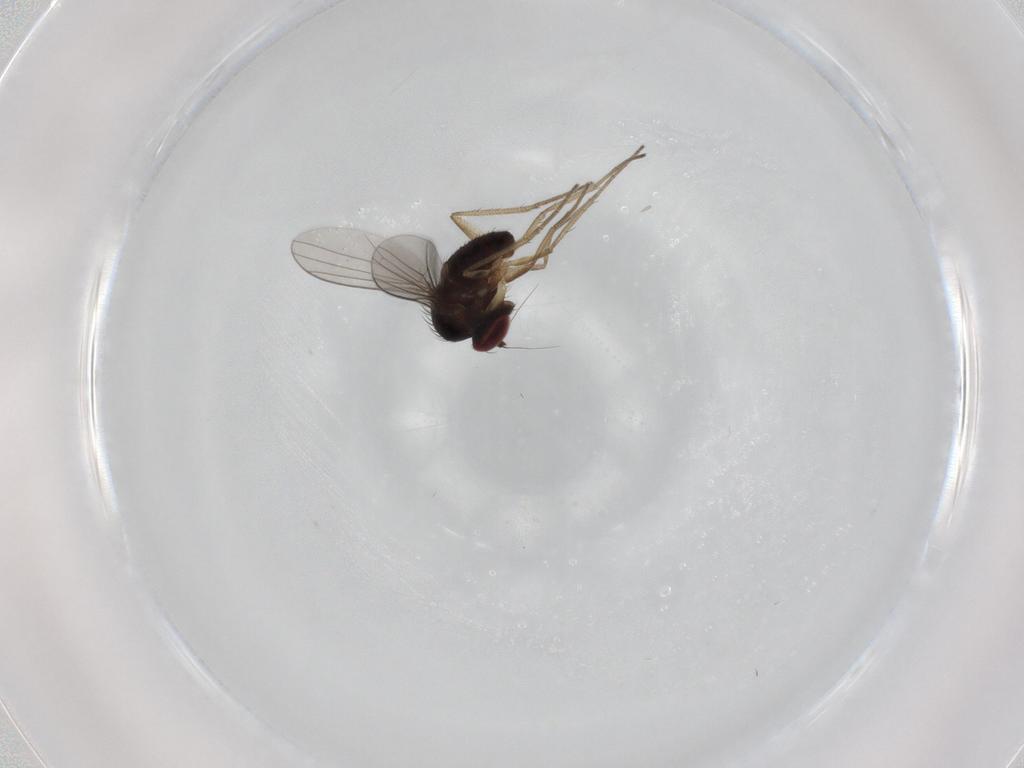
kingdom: Animalia
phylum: Arthropoda
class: Insecta
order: Diptera
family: Dolichopodidae
